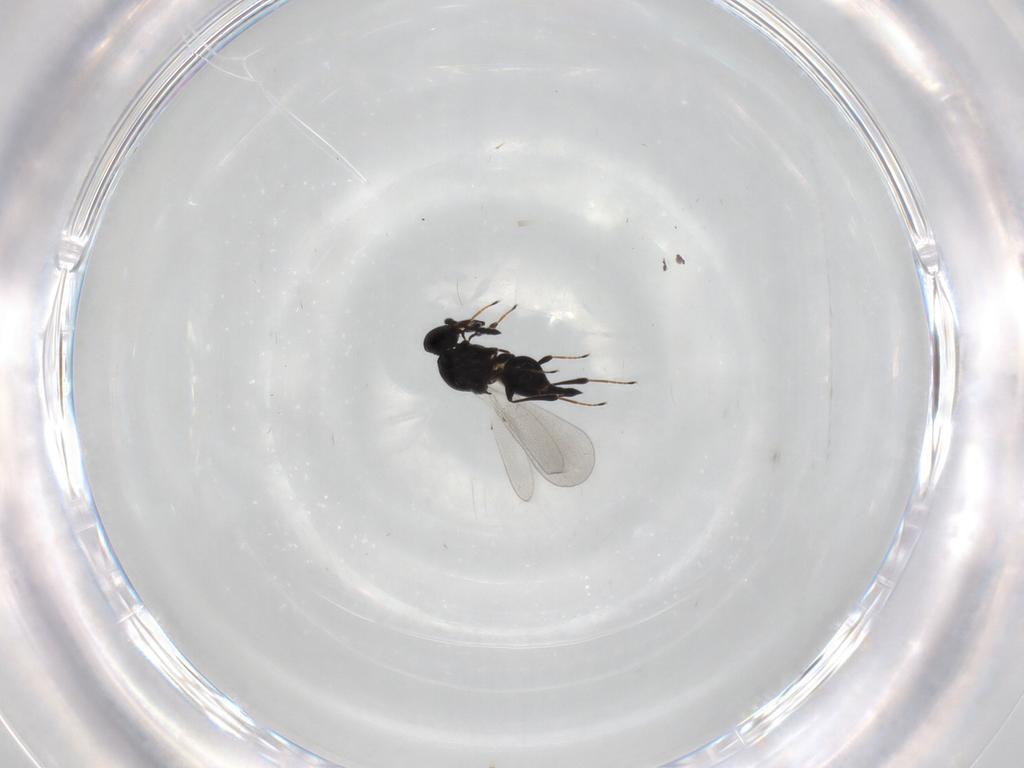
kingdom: Animalia
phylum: Arthropoda
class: Insecta
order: Hymenoptera
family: Platygastridae
